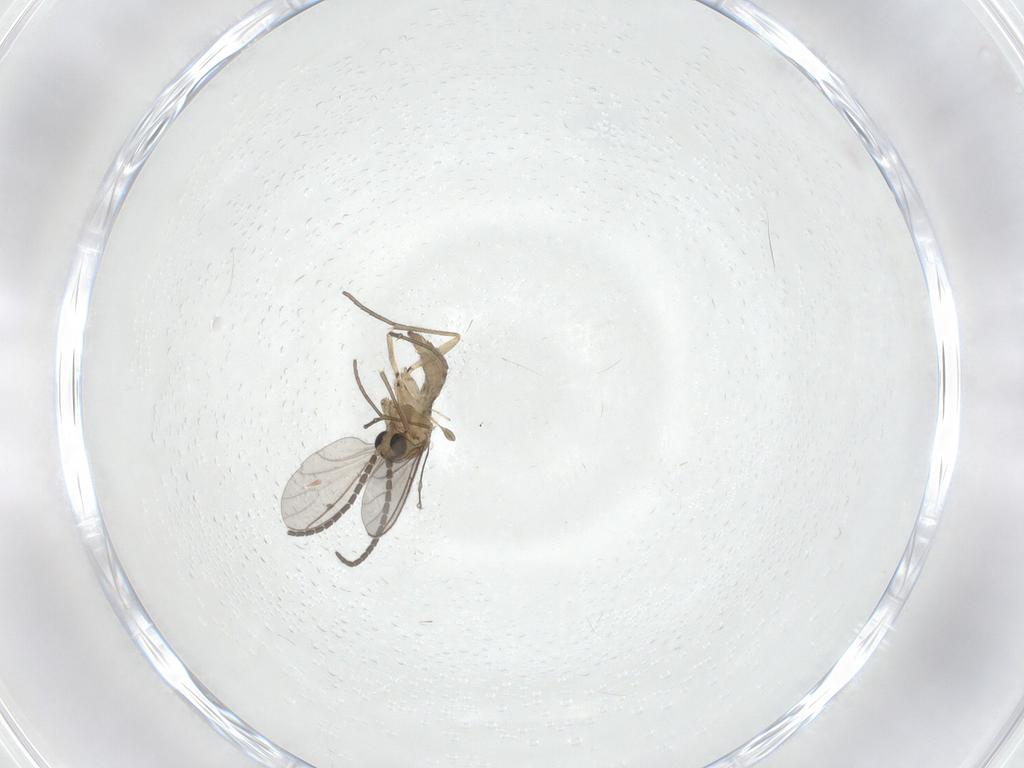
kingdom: Animalia
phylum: Arthropoda
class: Insecta
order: Diptera
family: Sciaridae
